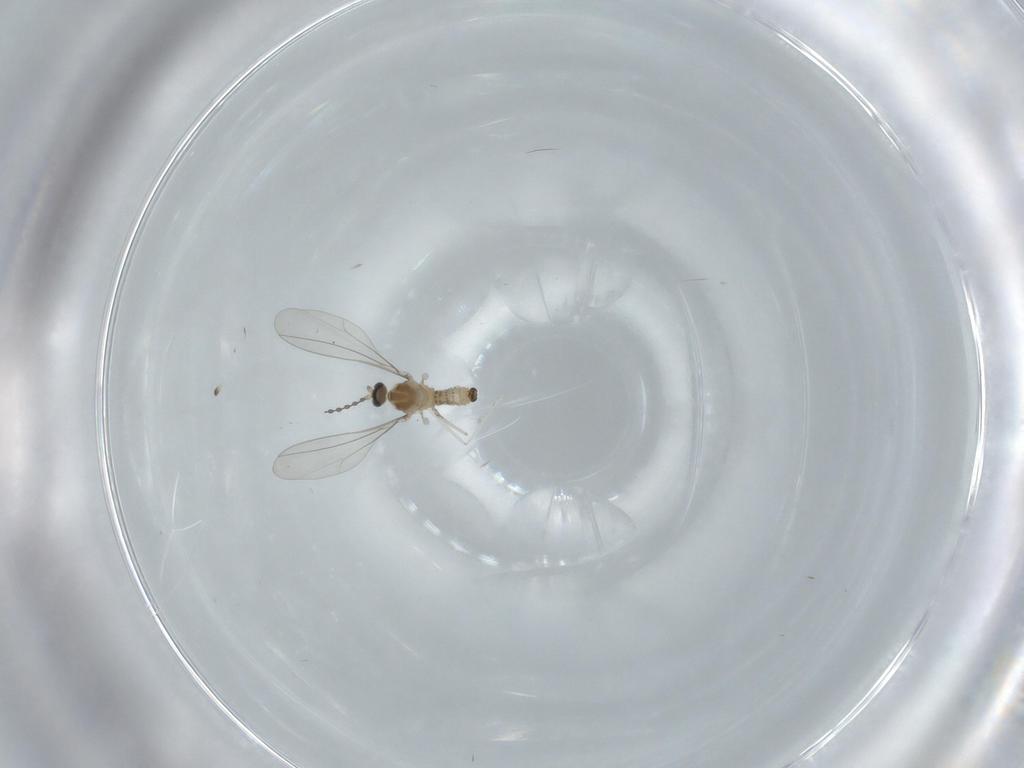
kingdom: Animalia
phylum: Arthropoda
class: Insecta
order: Diptera
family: Cecidomyiidae
